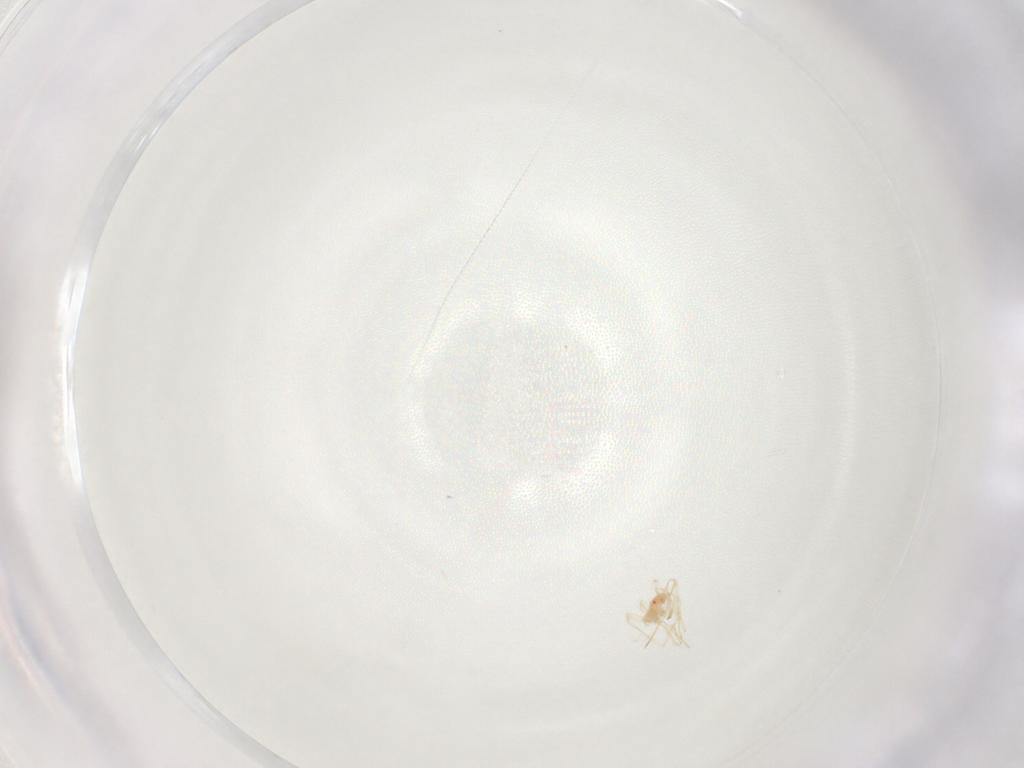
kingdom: Animalia
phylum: Arthropoda
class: Insecta
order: Hemiptera
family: Miridae
